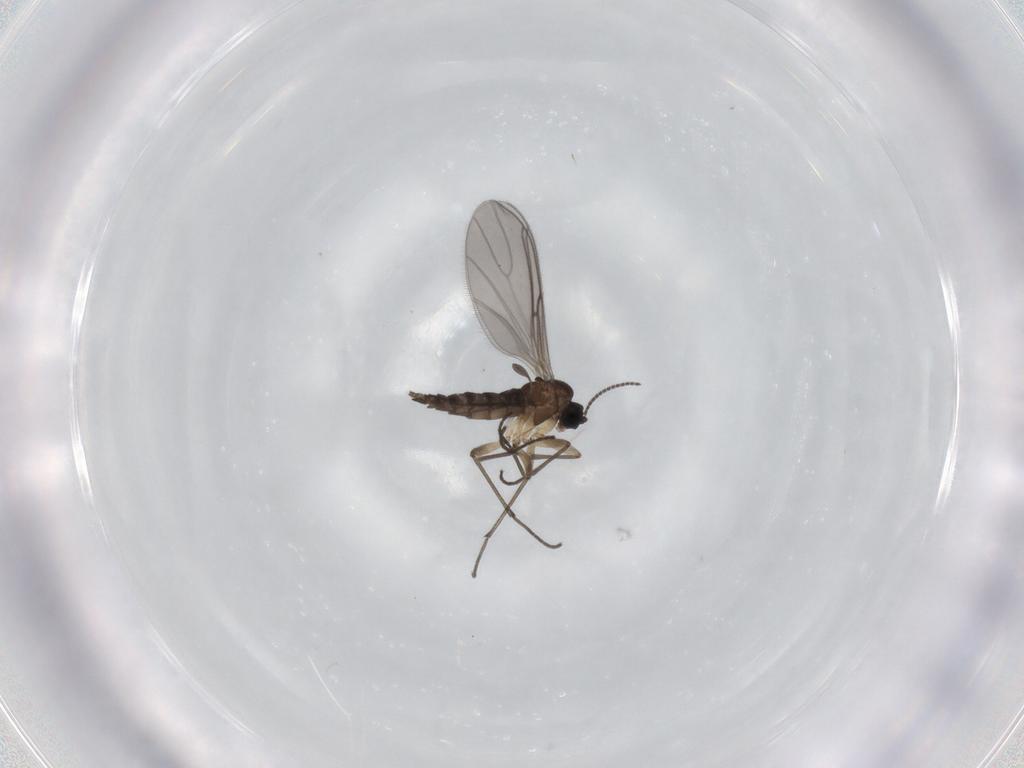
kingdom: Animalia
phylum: Arthropoda
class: Insecta
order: Diptera
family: Sciaridae
